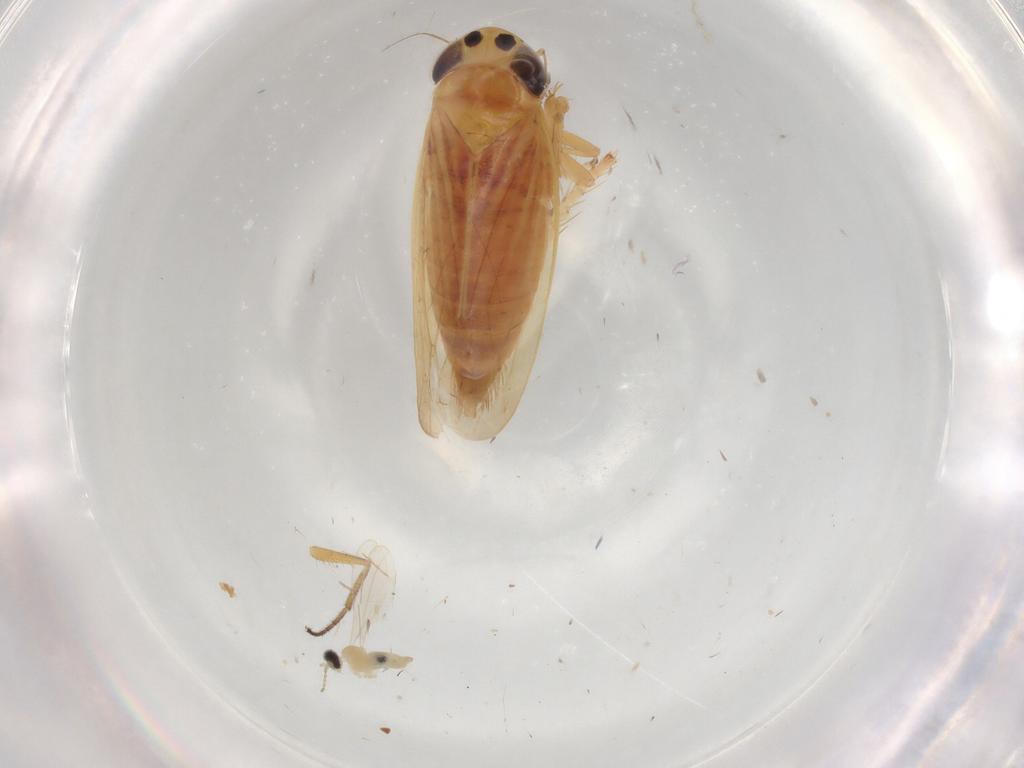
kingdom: Animalia
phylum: Arthropoda
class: Insecta
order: Hemiptera
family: Cicadellidae
